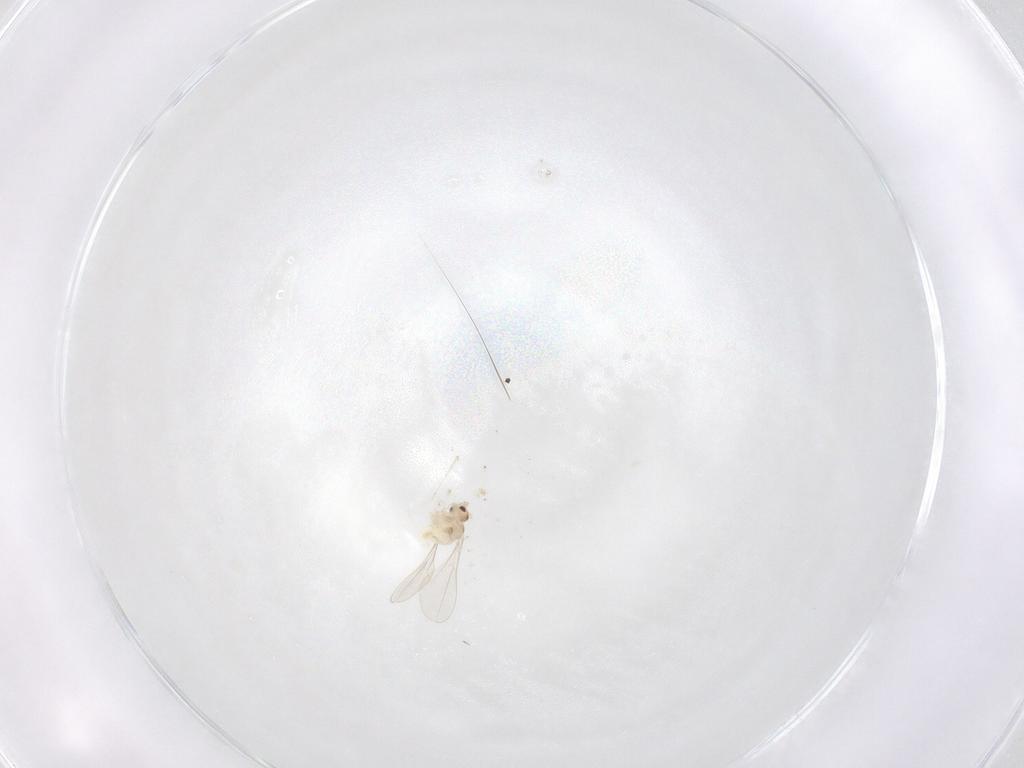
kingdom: Animalia
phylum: Arthropoda
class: Insecta
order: Diptera
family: Cecidomyiidae
